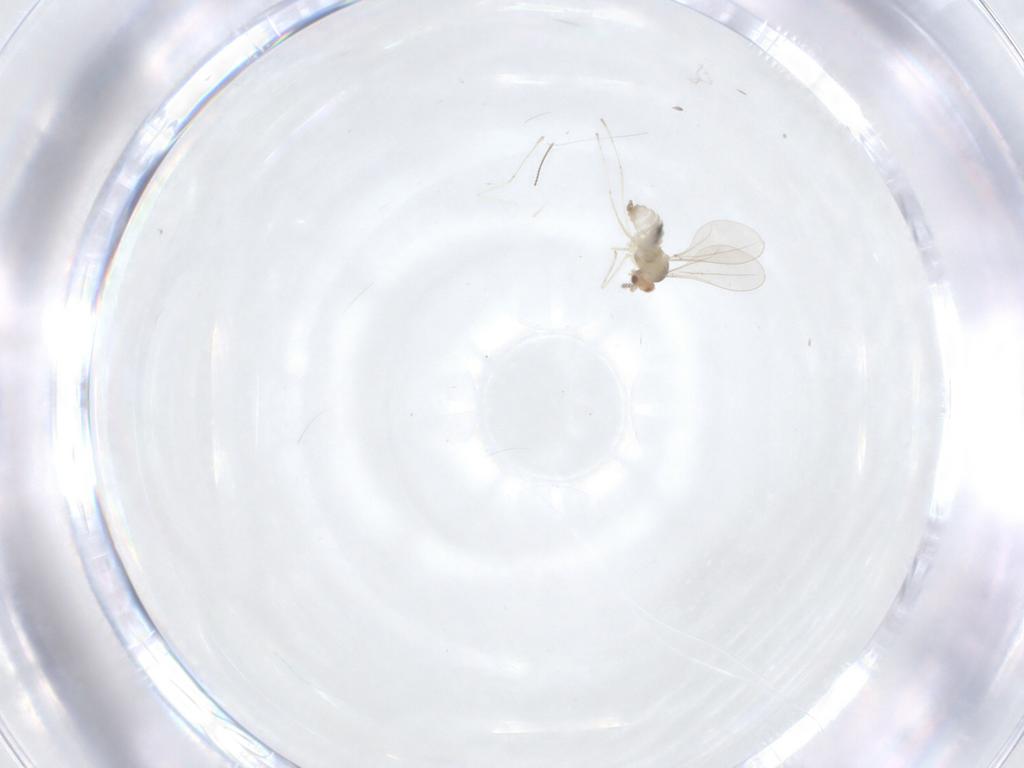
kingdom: Animalia
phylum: Arthropoda
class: Insecta
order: Diptera
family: Cecidomyiidae
